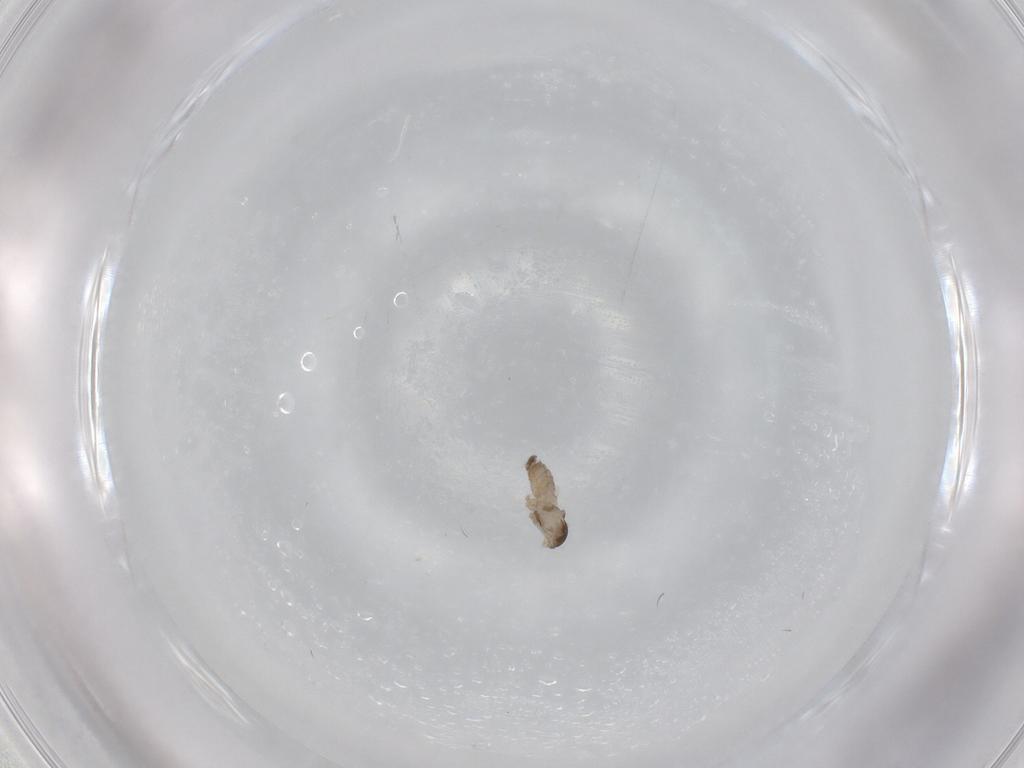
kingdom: Animalia
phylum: Arthropoda
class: Insecta
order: Diptera
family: Cecidomyiidae
